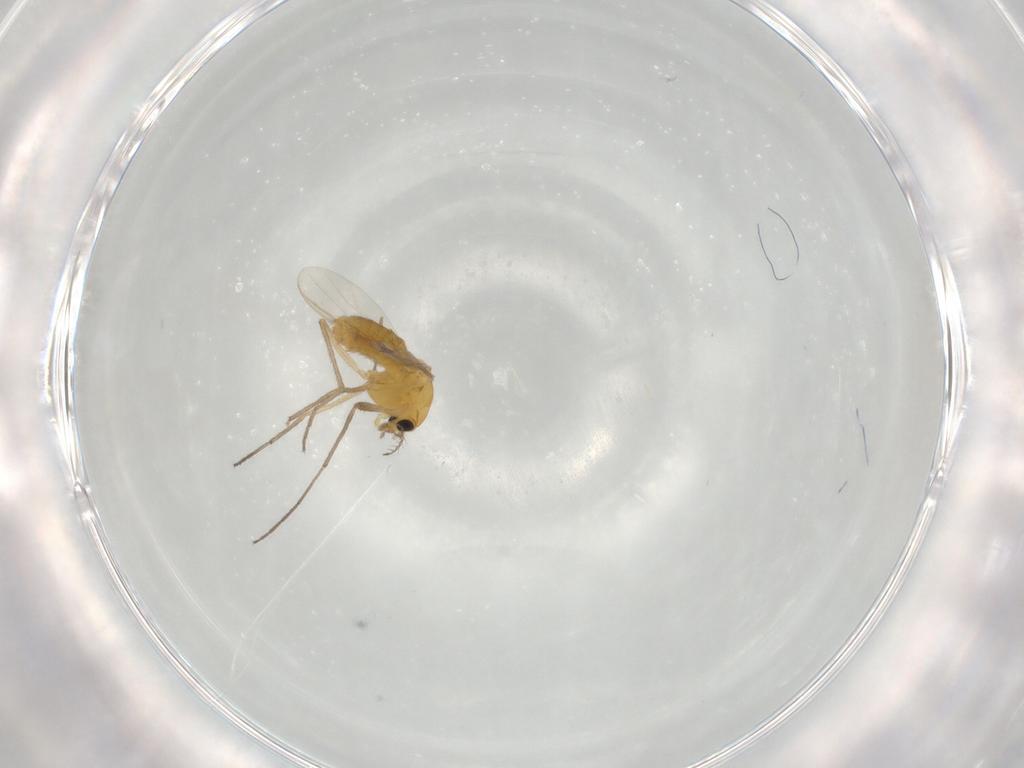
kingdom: Animalia
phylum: Arthropoda
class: Insecta
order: Diptera
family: Chironomidae
